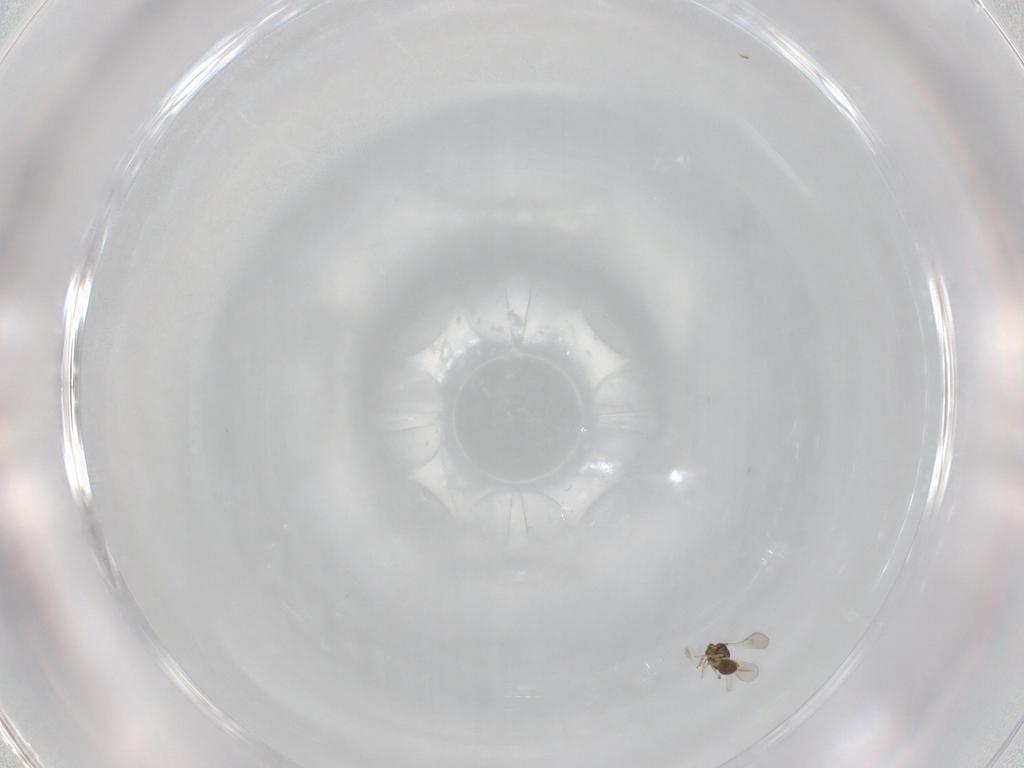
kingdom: Animalia
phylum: Arthropoda
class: Insecta
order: Hymenoptera
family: Scelionidae
